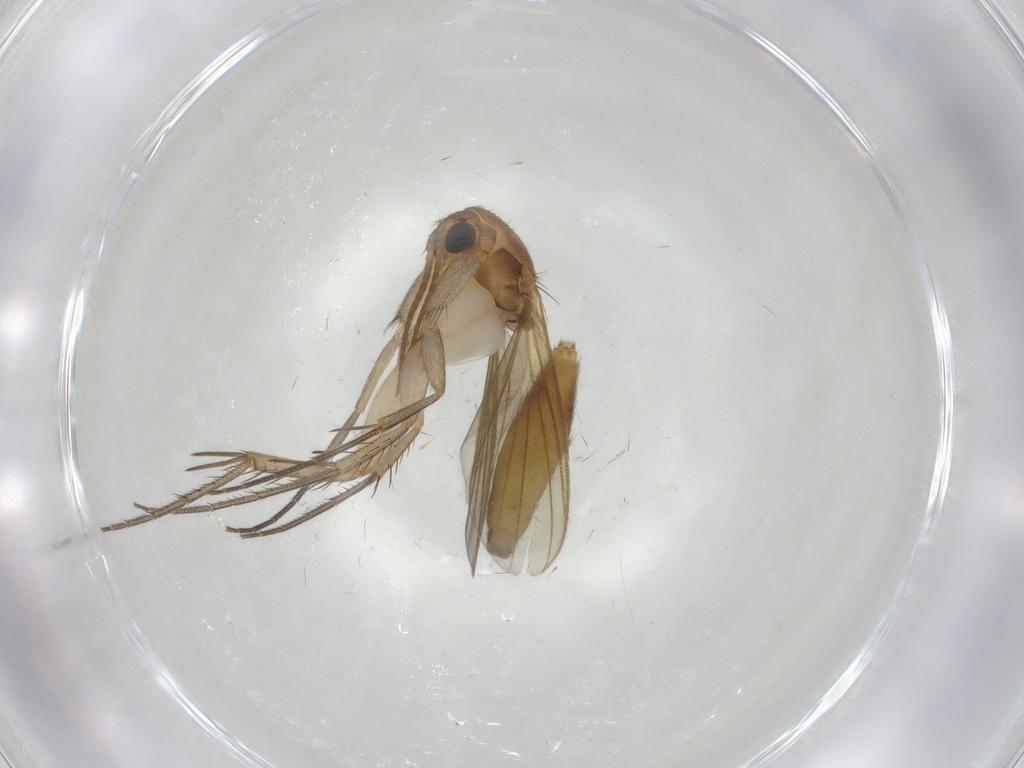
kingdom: Animalia
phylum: Arthropoda
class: Insecta
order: Diptera
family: Mycetophilidae
